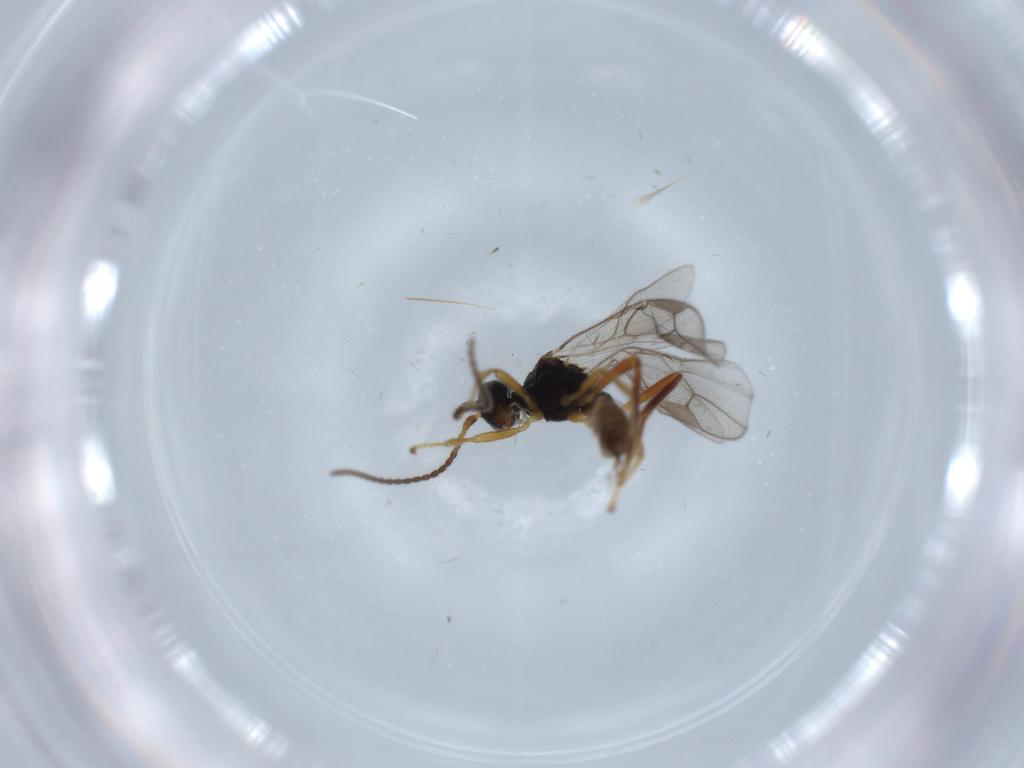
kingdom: Animalia
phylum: Arthropoda
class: Insecta
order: Hymenoptera
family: Braconidae
